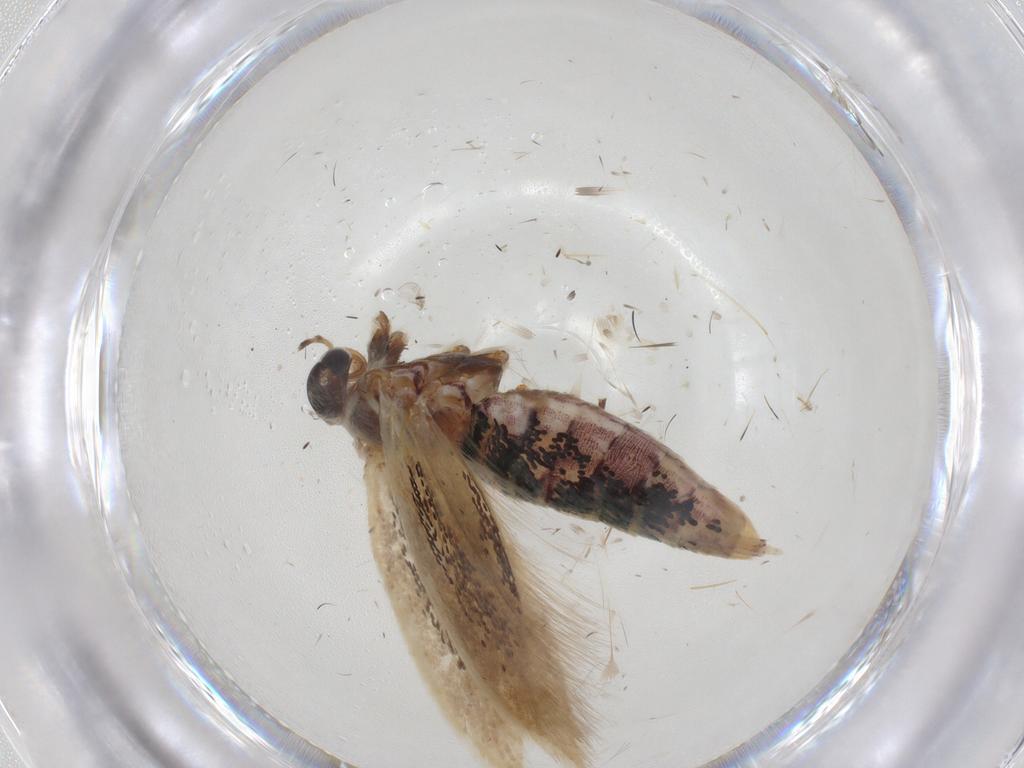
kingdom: Animalia
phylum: Arthropoda
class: Insecta
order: Lepidoptera
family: Scythrididae
